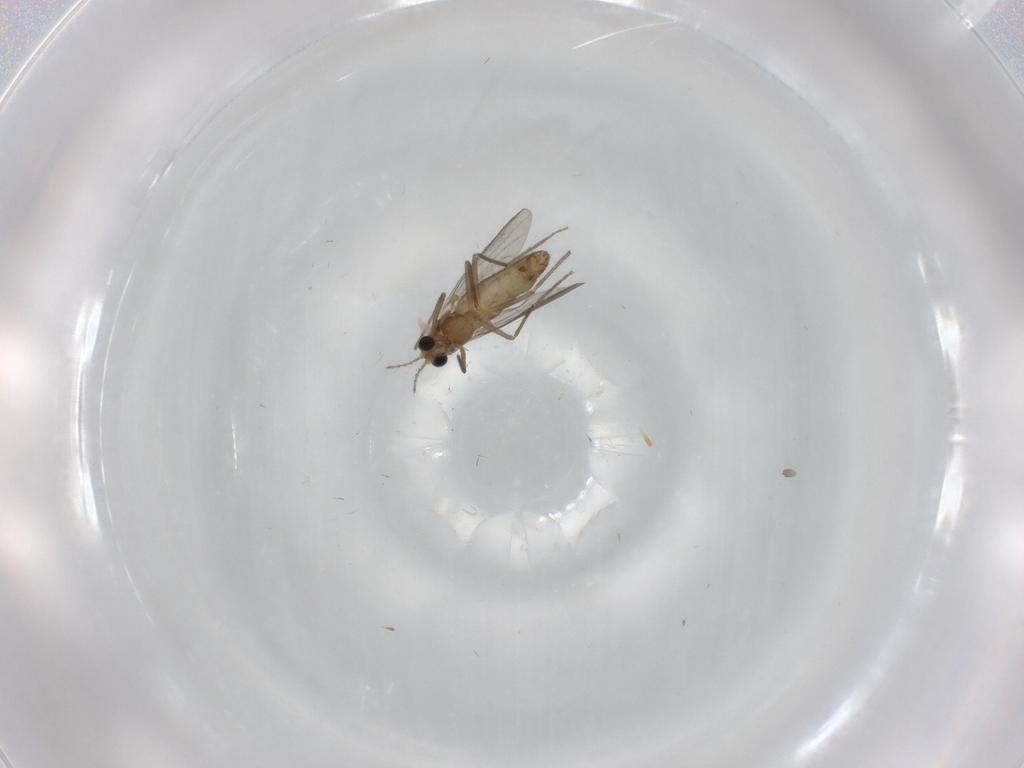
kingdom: Animalia
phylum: Arthropoda
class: Insecta
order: Diptera
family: Chironomidae
